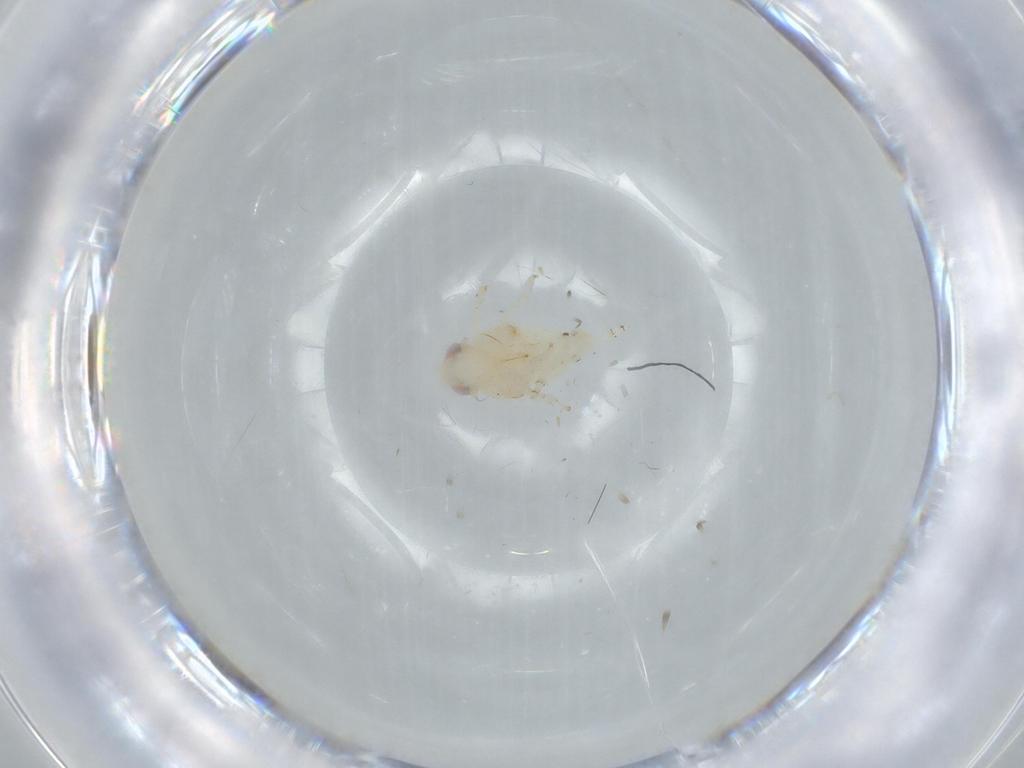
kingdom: Animalia
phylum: Arthropoda
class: Insecta
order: Hemiptera
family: Nogodinidae
